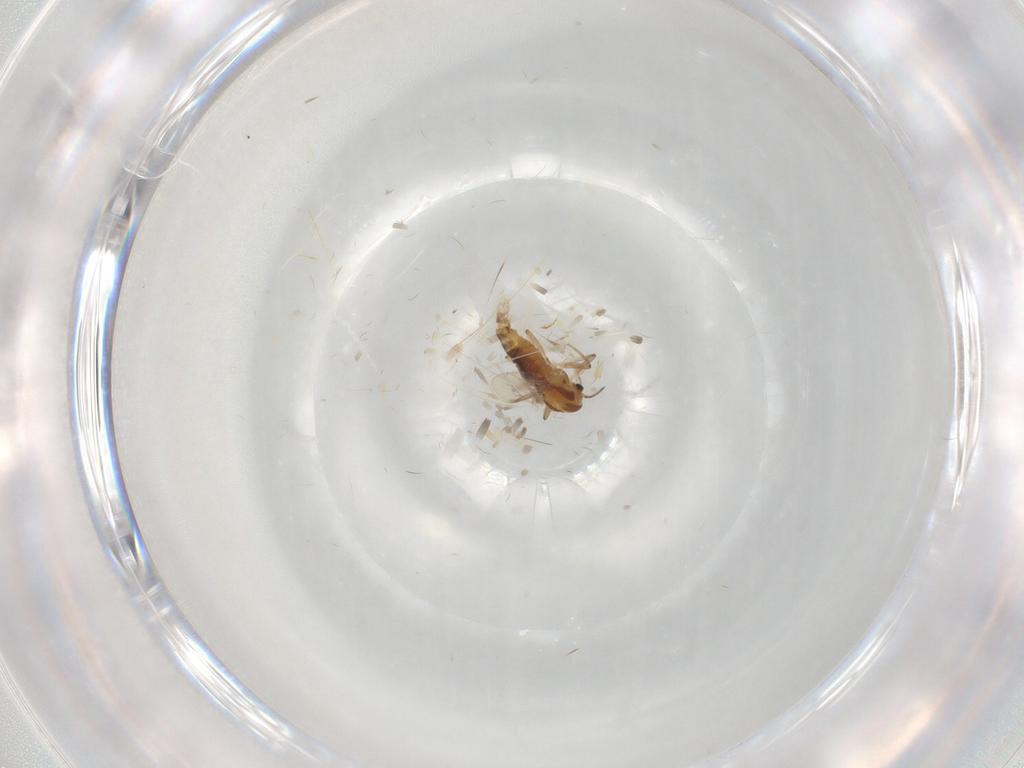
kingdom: Animalia
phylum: Arthropoda
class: Insecta
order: Diptera
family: Chironomidae
